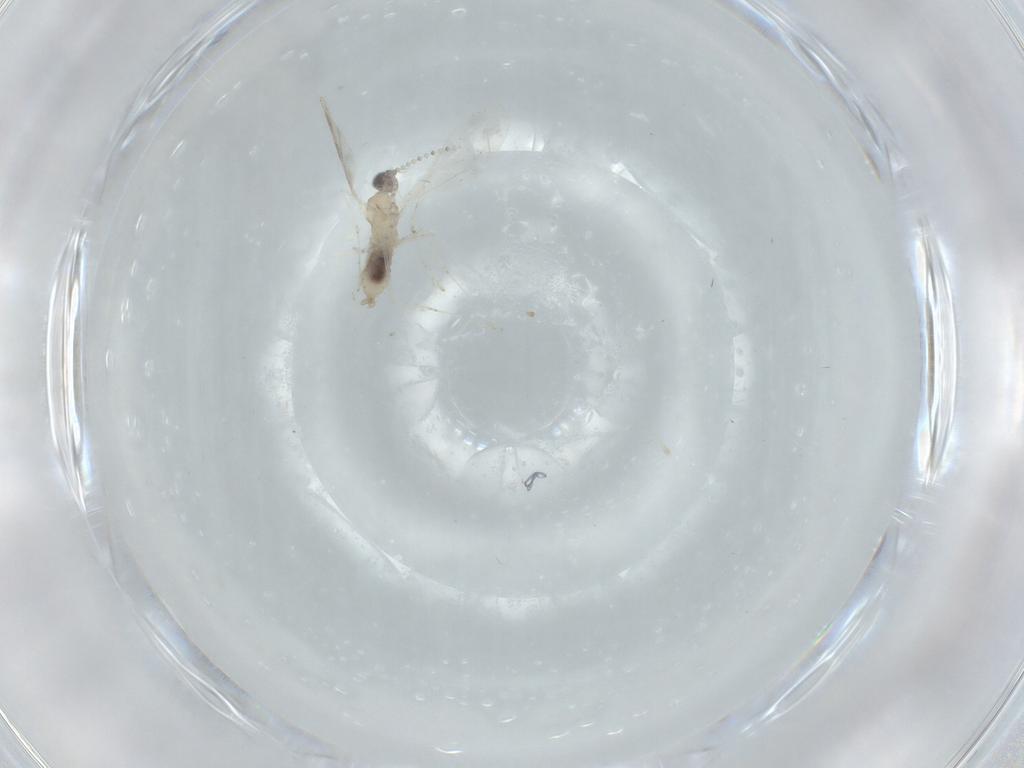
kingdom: Animalia
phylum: Arthropoda
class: Insecta
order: Diptera
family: Cecidomyiidae
